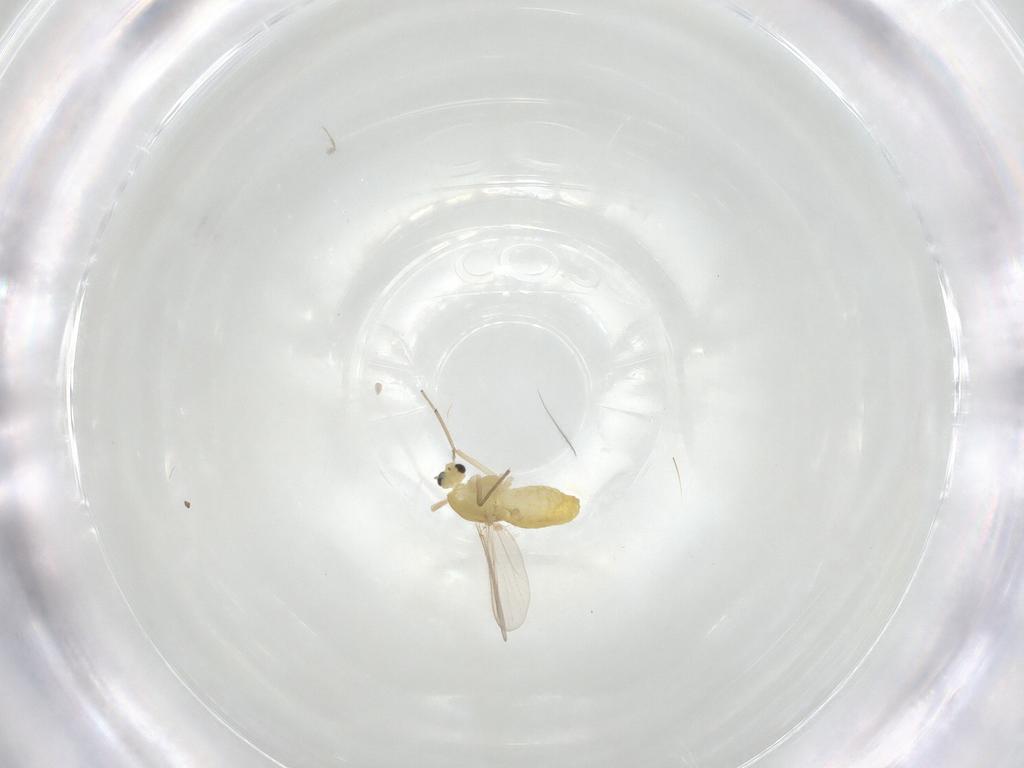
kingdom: Animalia
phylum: Arthropoda
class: Insecta
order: Diptera
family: Chironomidae
